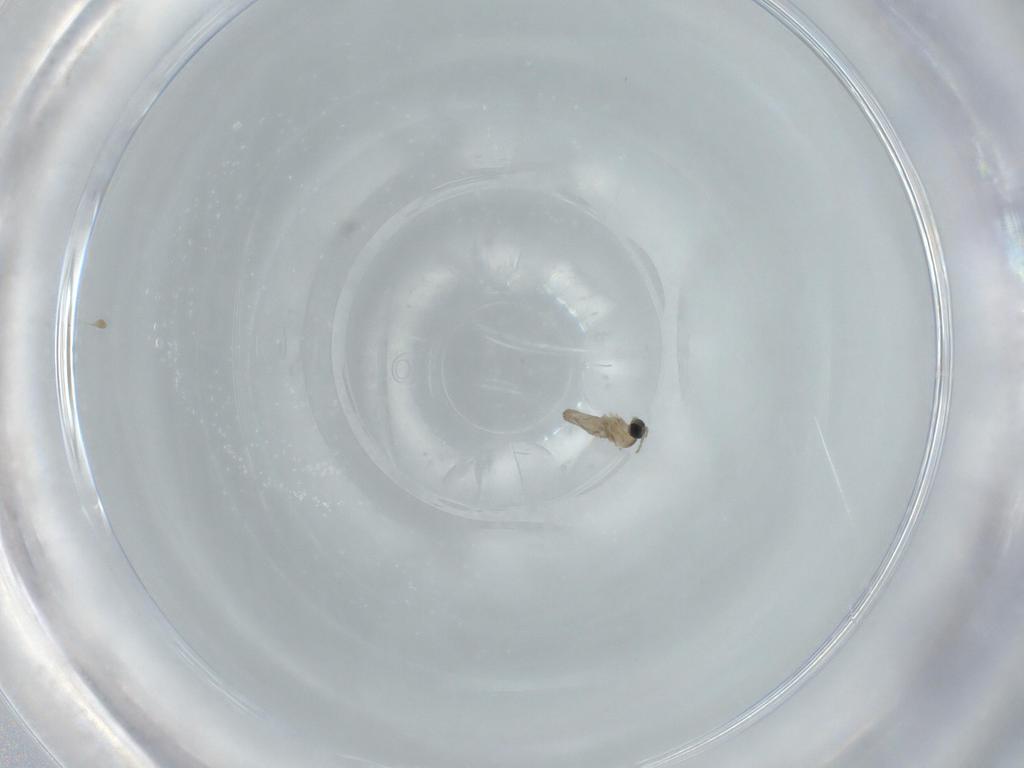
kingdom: Animalia
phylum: Arthropoda
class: Insecta
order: Diptera
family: Cecidomyiidae
